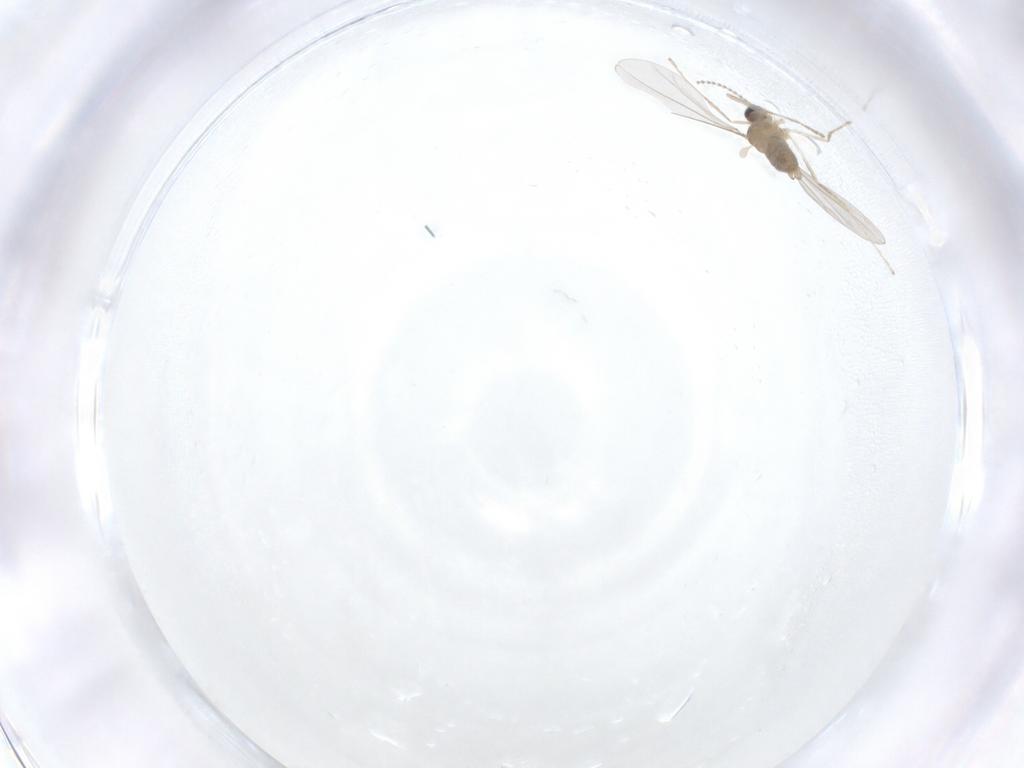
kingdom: Animalia
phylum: Arthropoda
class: Insecta
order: Diptera
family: Cecidomyiidae
